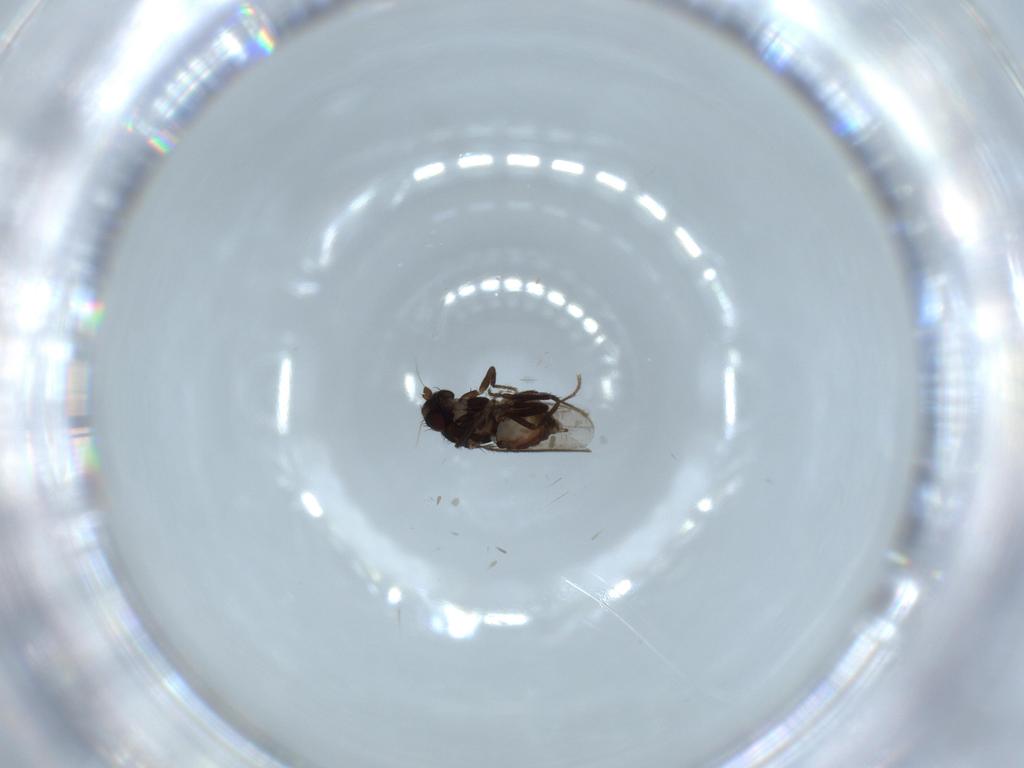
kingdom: Animalia
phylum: Arthropoda
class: Insecta
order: Diptera
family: Sphaeroceridae
